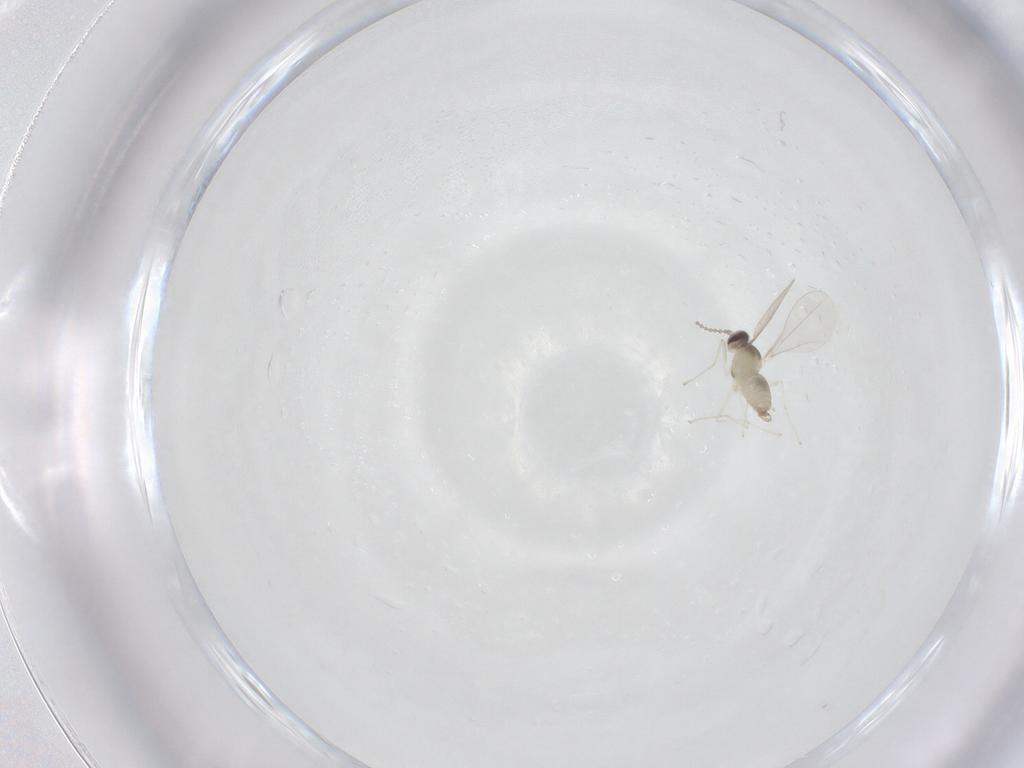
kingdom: Animalia
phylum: Arthropoda
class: Insecta
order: Diptera
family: Cecidomyiidae
